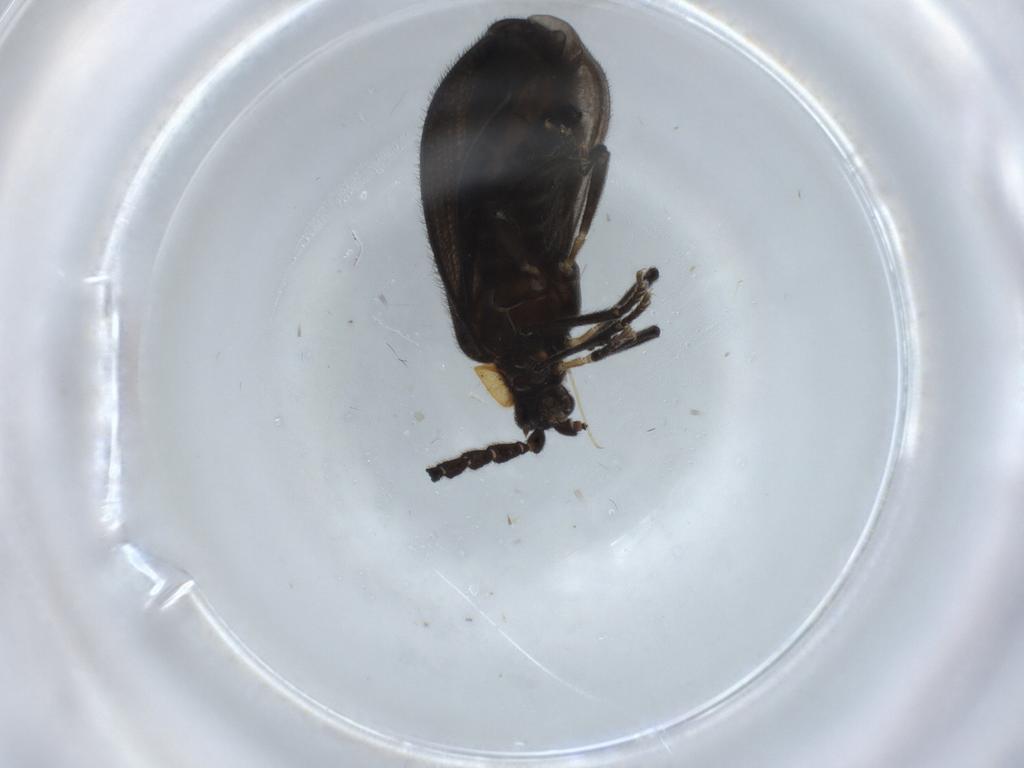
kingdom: Animalia
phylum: Arthropoda
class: Insecta
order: Coleoptera
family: Lycidae
